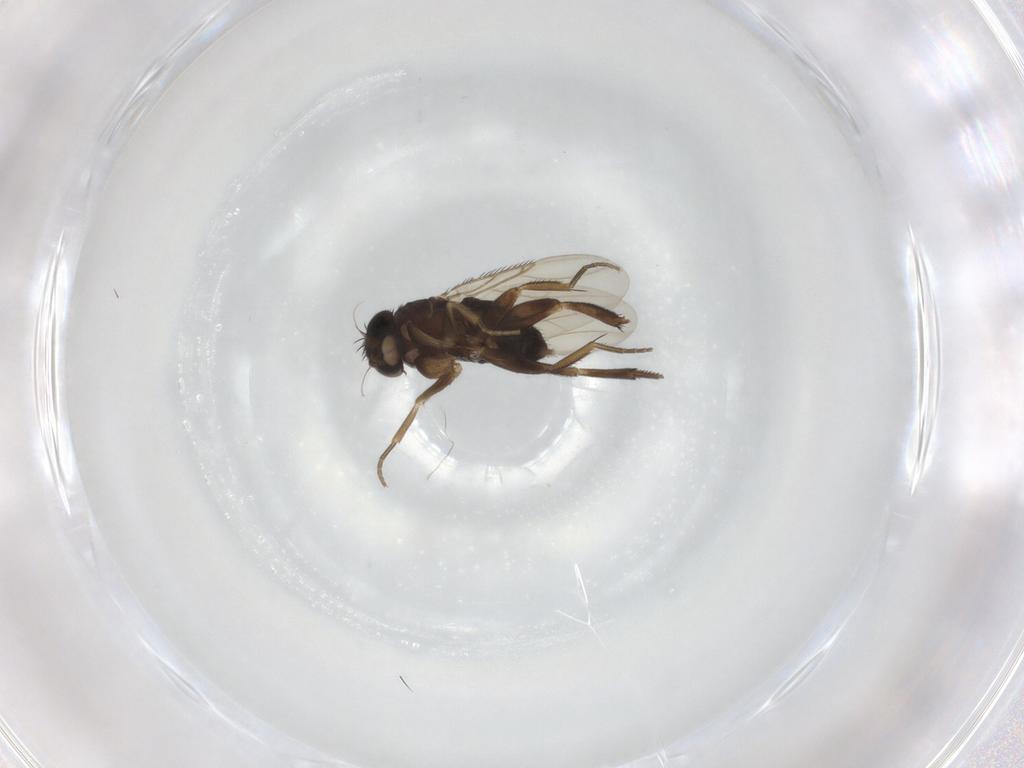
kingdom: Animalia
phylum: Arthropoda
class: Insecta
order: Diptera
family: Phoridae
